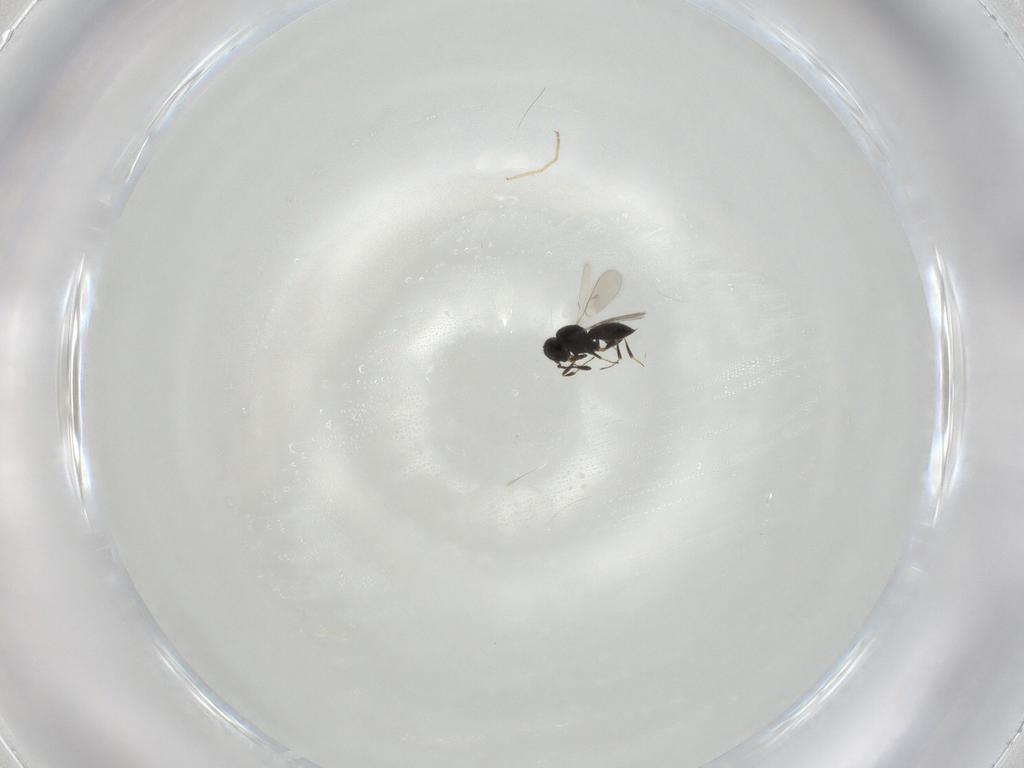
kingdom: Animalia
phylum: Arthropoda
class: Insecta
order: Hymenoptera
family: Scelionidae
